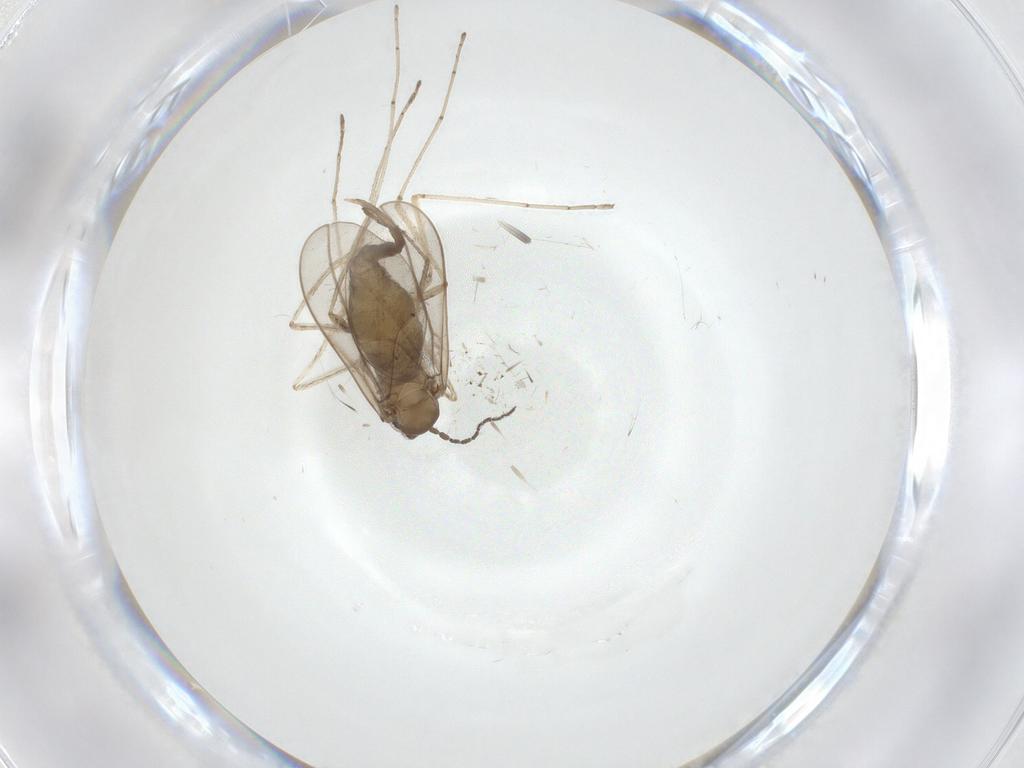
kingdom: Animalia
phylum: Arthropoda
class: Insecta
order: Diptera
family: Cecidomyiidae
